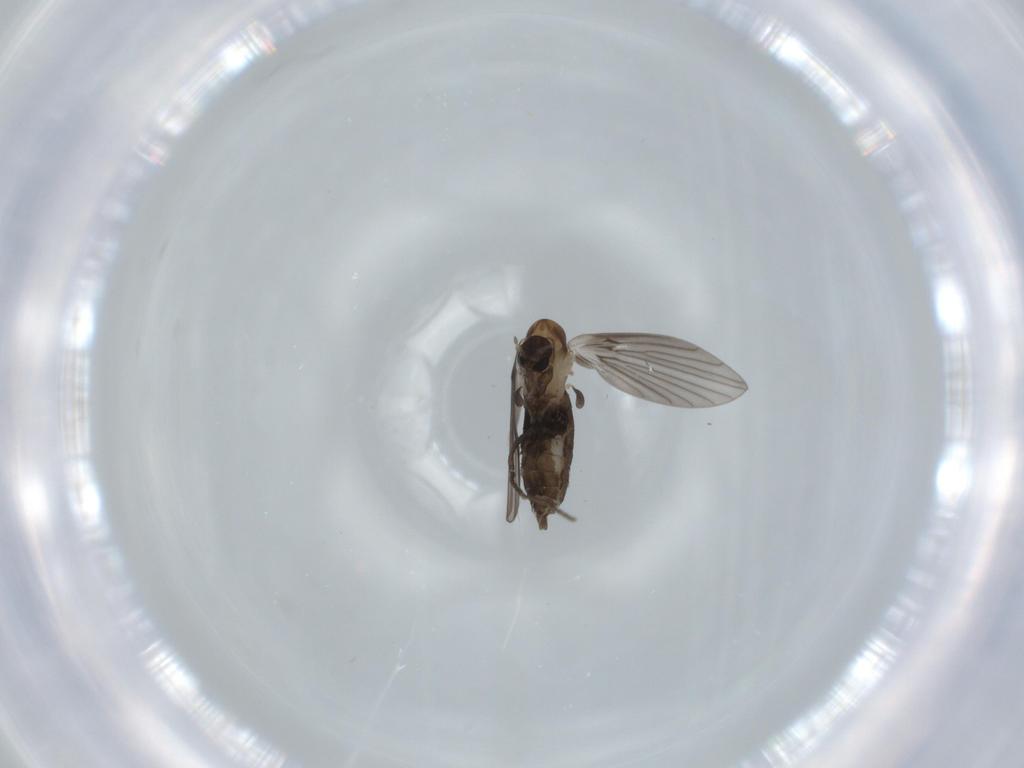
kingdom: Animalia
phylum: Arthropoda
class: Insecta
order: Diptera
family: Psychodidae
